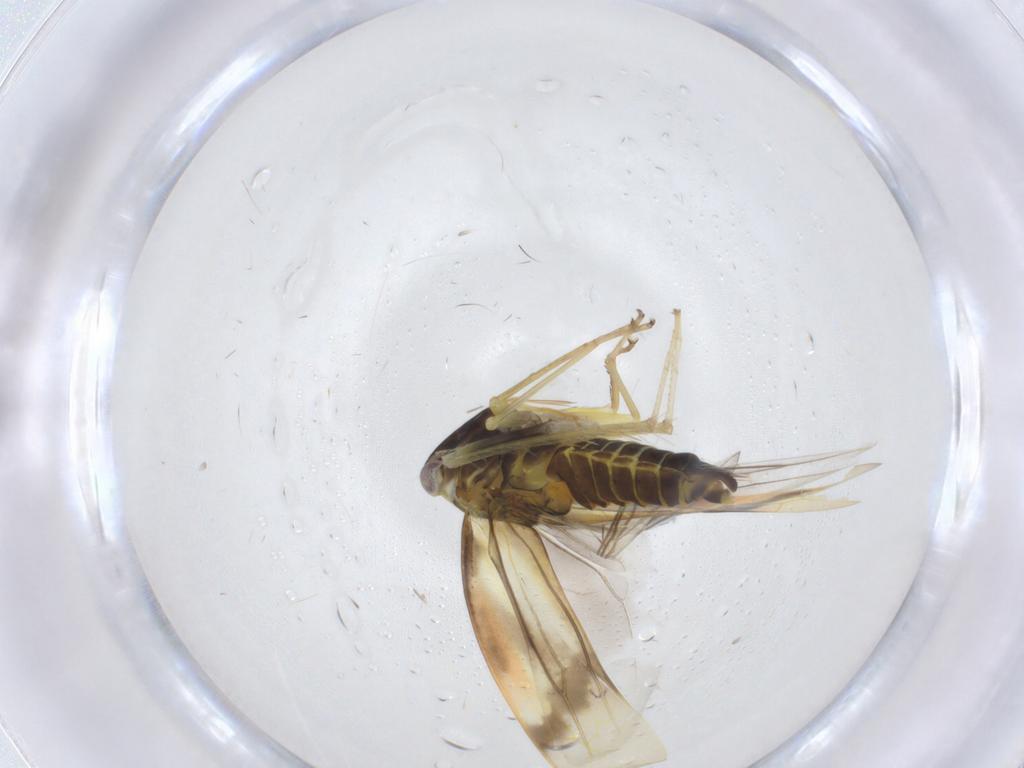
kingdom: Animalia
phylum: Arthropoda
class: Insecta
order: Hemiptera
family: Cicadellidae
